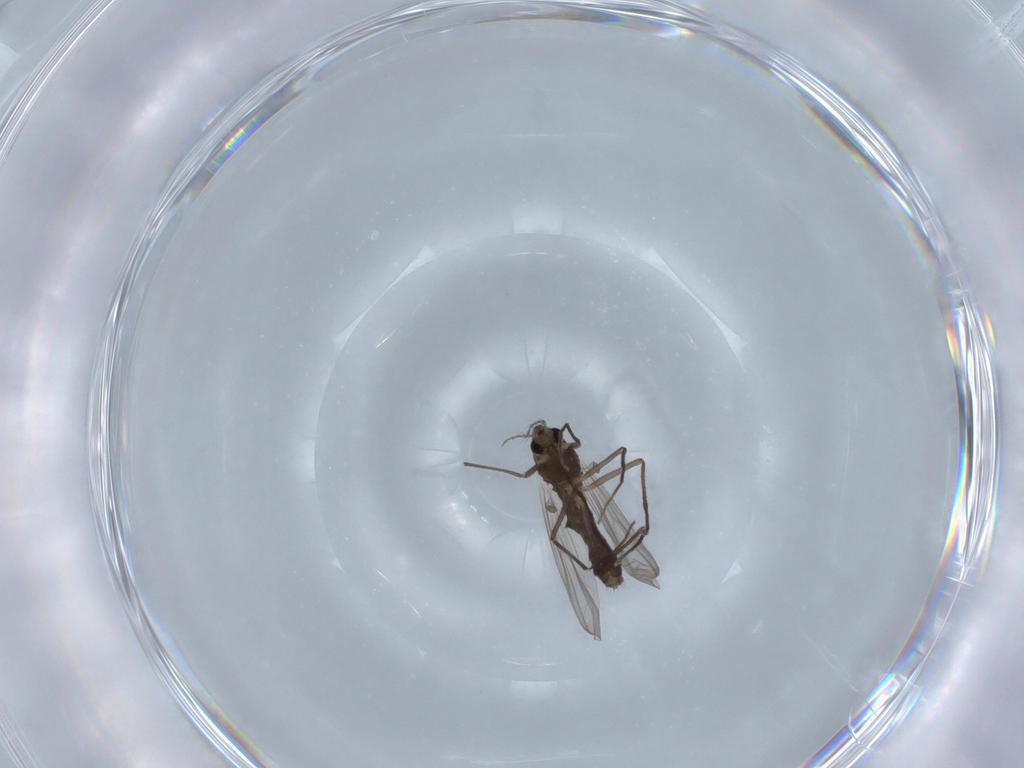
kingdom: Animalia
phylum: Arthropoda
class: Insecta
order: Diptera
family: Chironomidae
